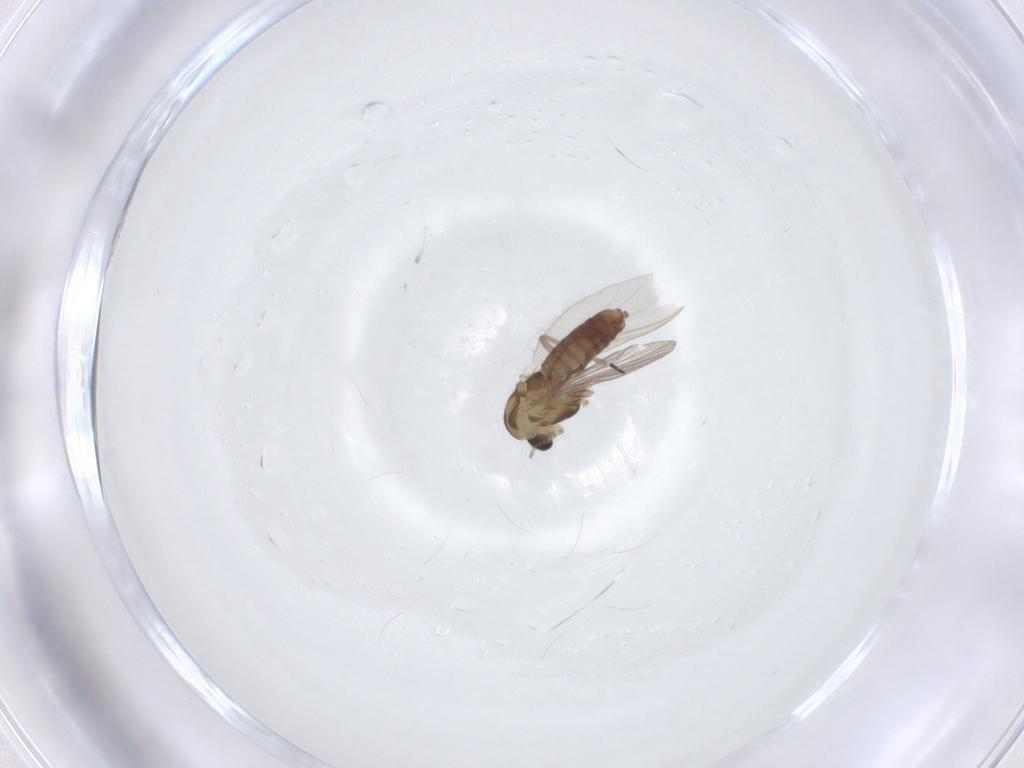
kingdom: Animalia
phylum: Arthropoda
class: Insecta
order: Diptera
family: Chironomidae
